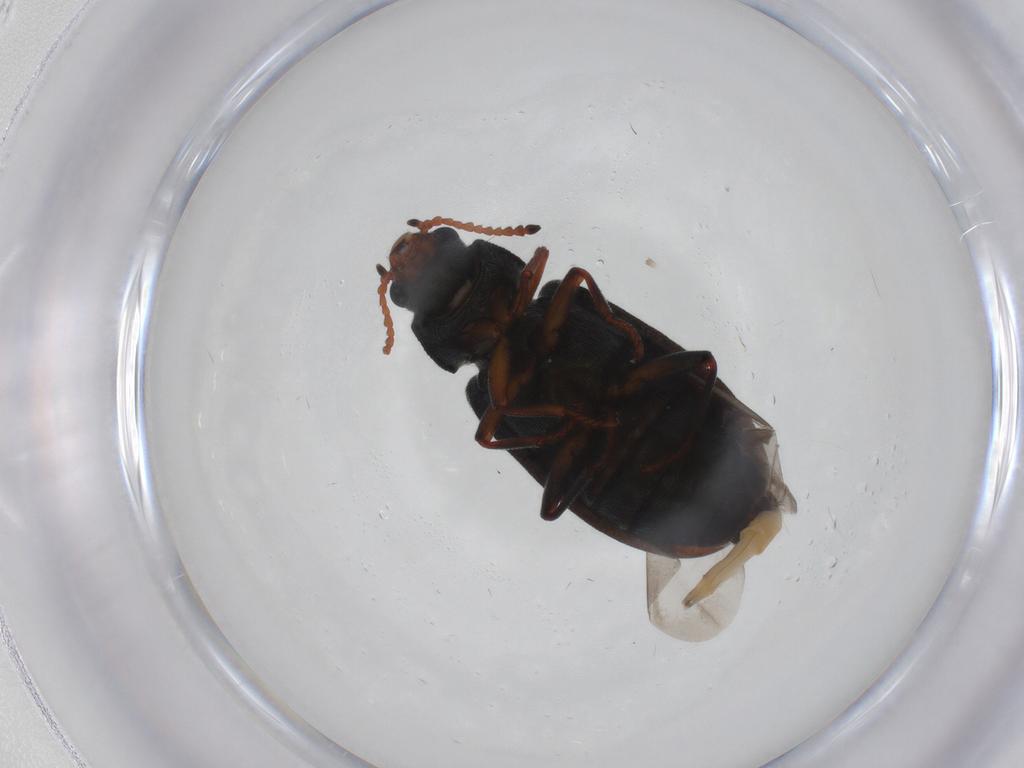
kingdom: Animalia
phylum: Arthropoda
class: Insecta
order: Coleoptera
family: Melyridae
